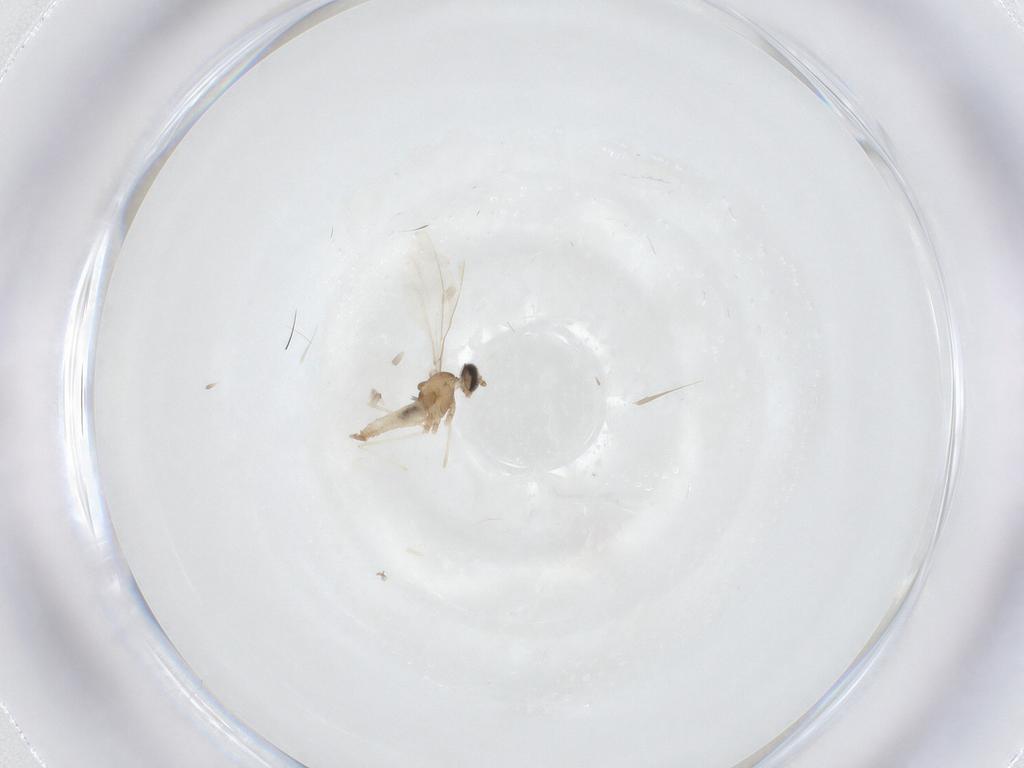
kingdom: Animalia
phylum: Arthropoda
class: Insecta
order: Diptera
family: Cecidomyiidae
